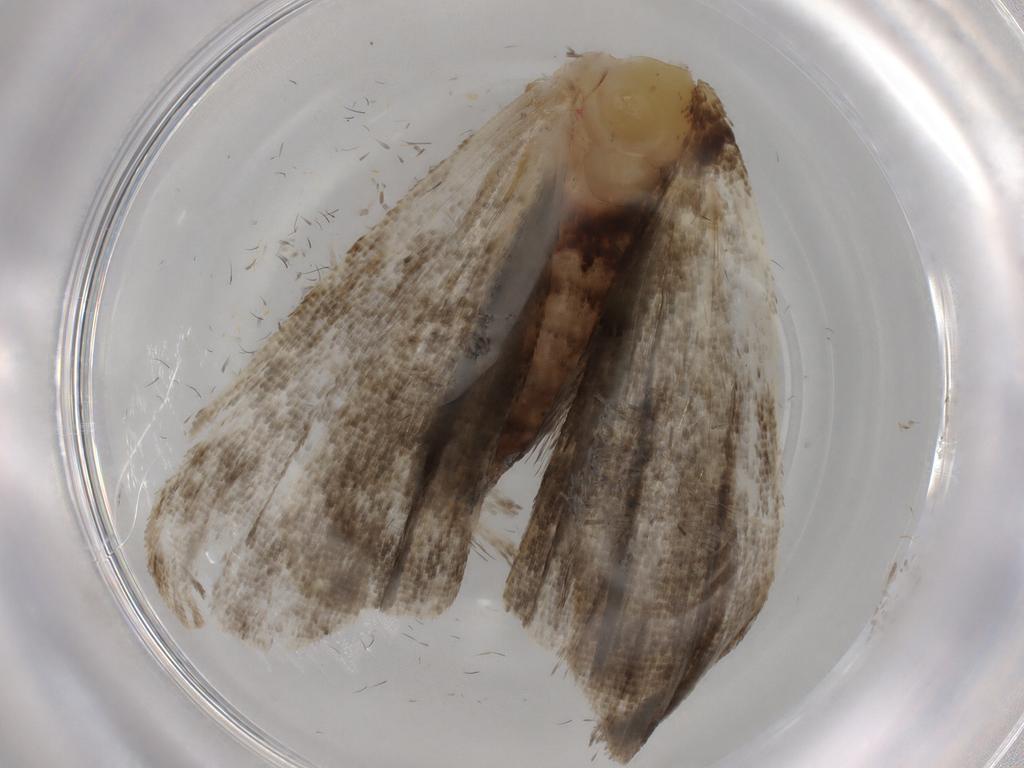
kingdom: Animalia
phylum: Arthropoda
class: Insecta
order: Lepidoptera
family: Erebidae
